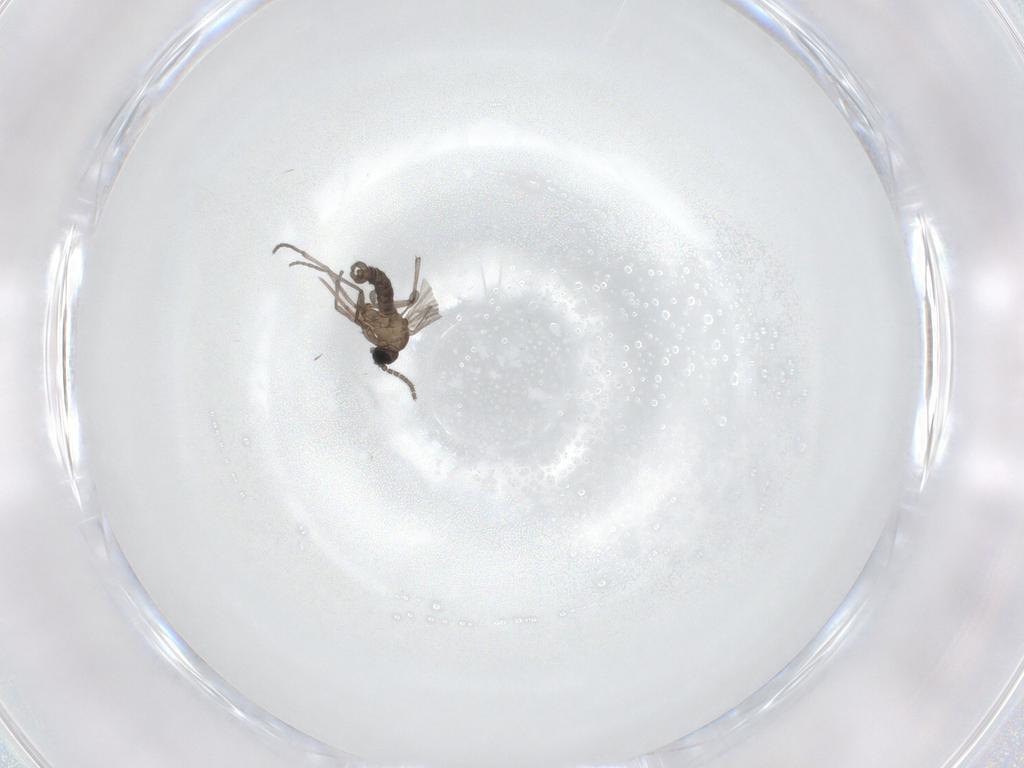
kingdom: Animalia
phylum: Arthropoda
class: Insecta
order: Diptera
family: Sciaridae
